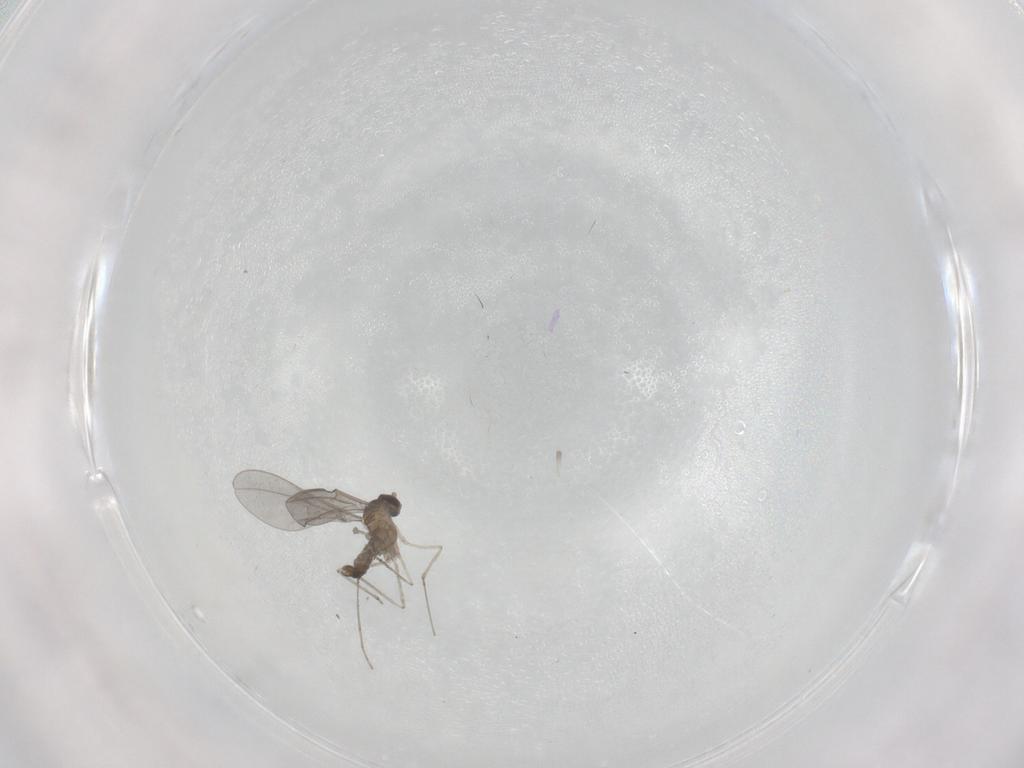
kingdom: Animalia
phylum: Arthropoda
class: Insecta
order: Diptera
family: Cecidomyiidae
